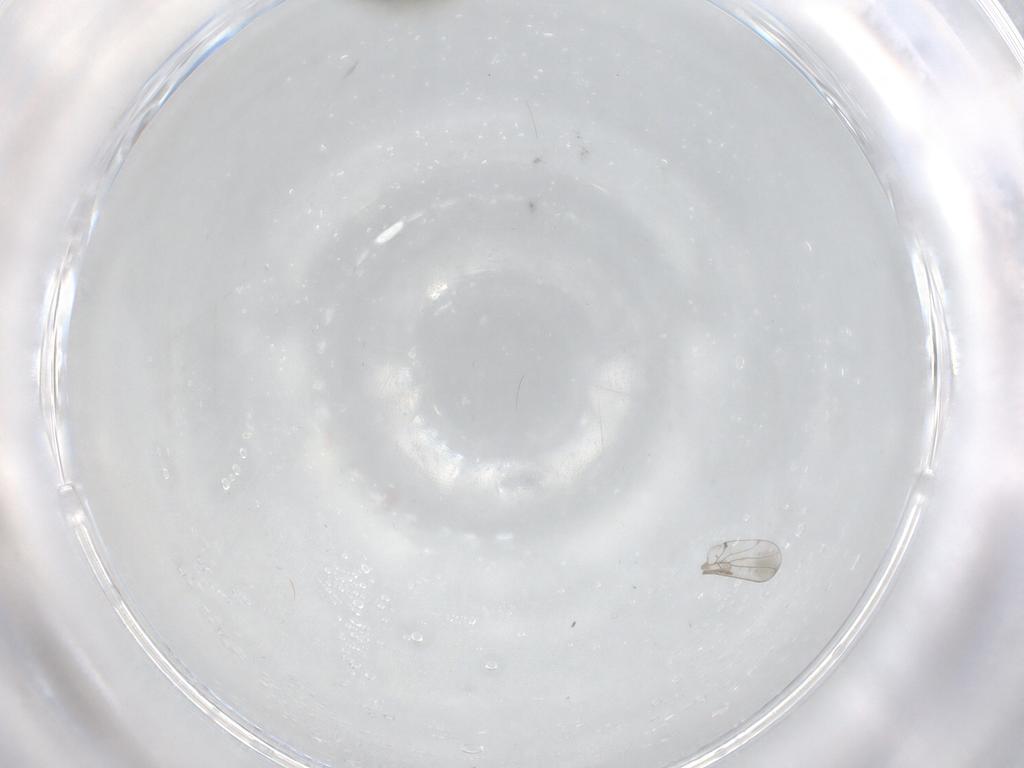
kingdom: Animalia
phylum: Arthropoda
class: Insecta
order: Psocodea
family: Psoquillidae
